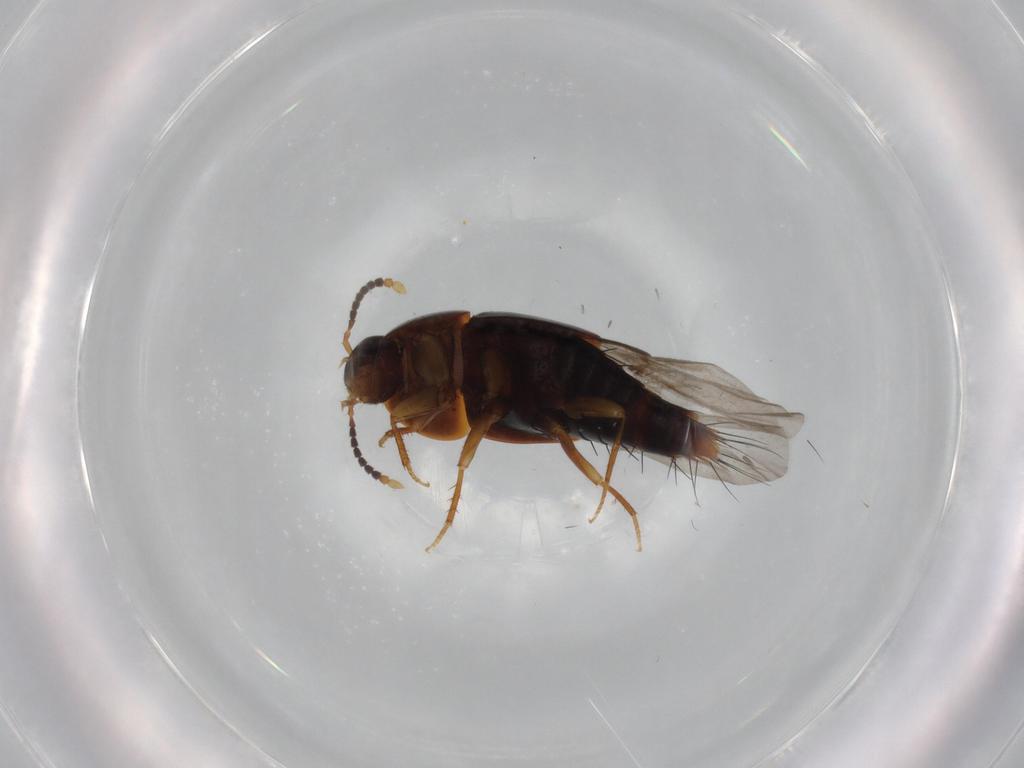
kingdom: Animalia
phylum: Arthropoda
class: Insecta
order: Coleoptera
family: Staphylinidae
